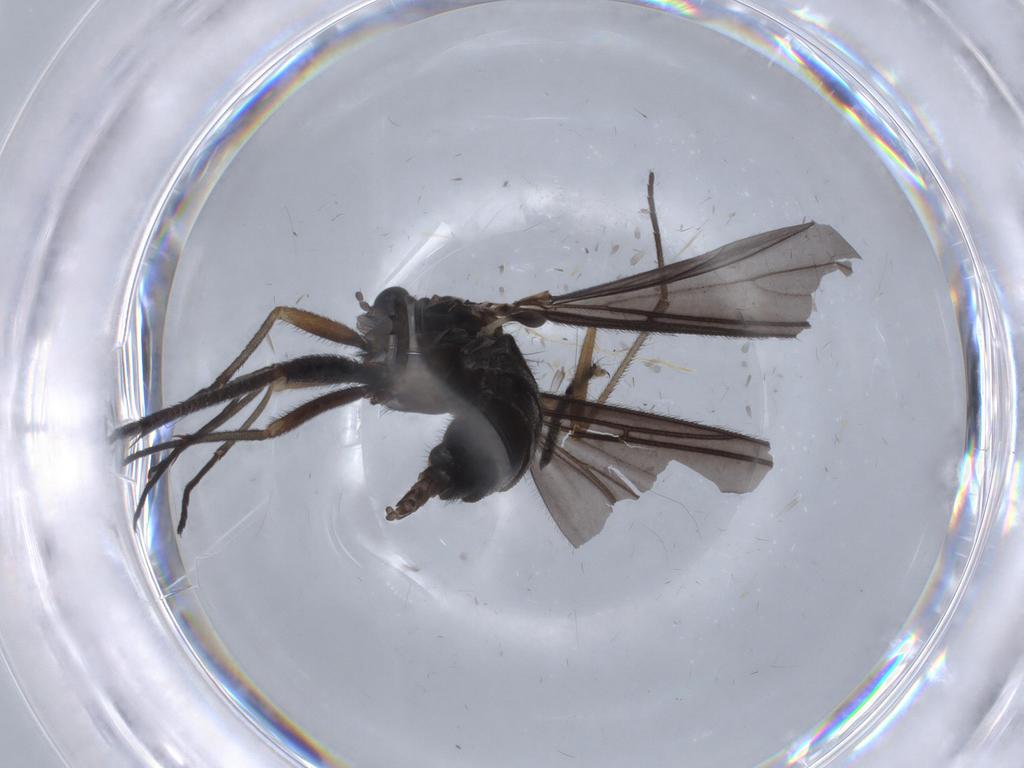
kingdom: Animalia
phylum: Arthropoda
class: Insecta
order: Diptera
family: Sciaridae
